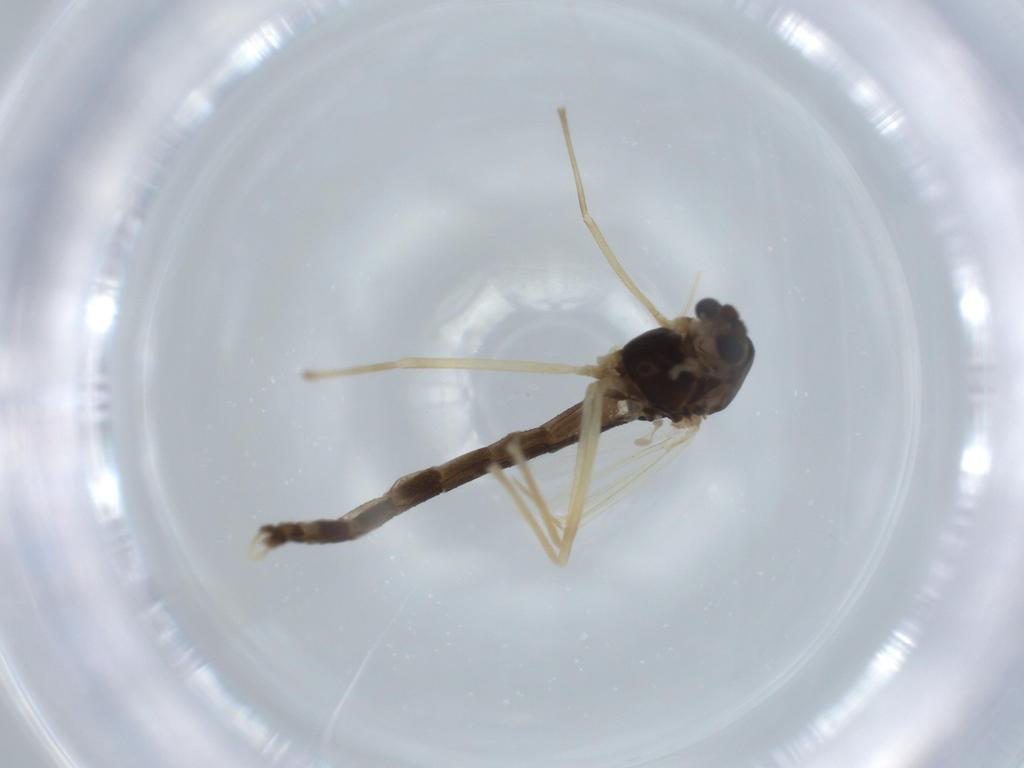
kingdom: Animalia
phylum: Arthropoda
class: Insecta
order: Diptera
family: Chironomidae
